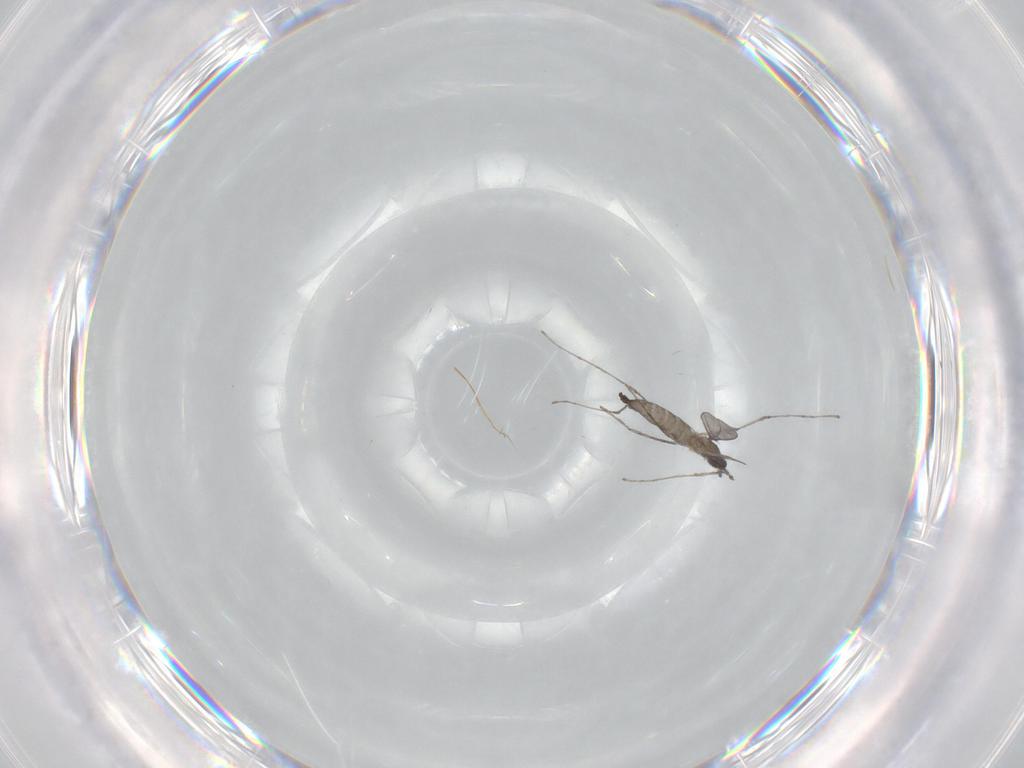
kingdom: Animalia
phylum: Arthropoda
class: Insecta
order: Diptera
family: Cecidomyiidae
